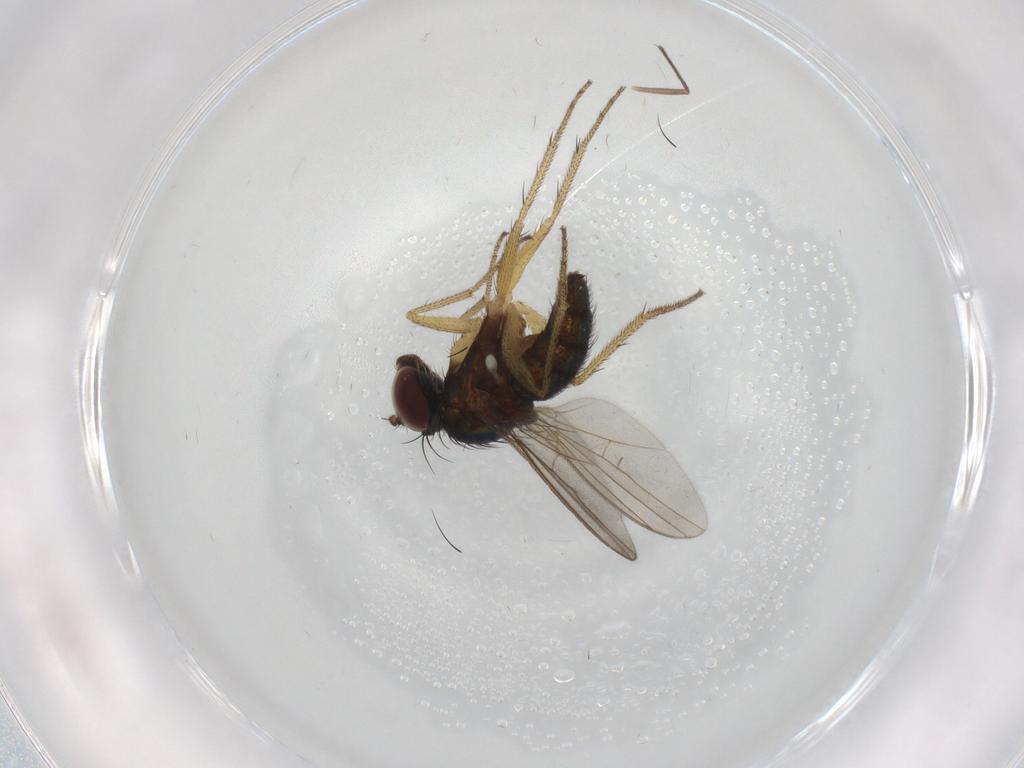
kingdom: Animalia
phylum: Arthropoda
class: Insecta
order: Diptera
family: Dolichopodidae
